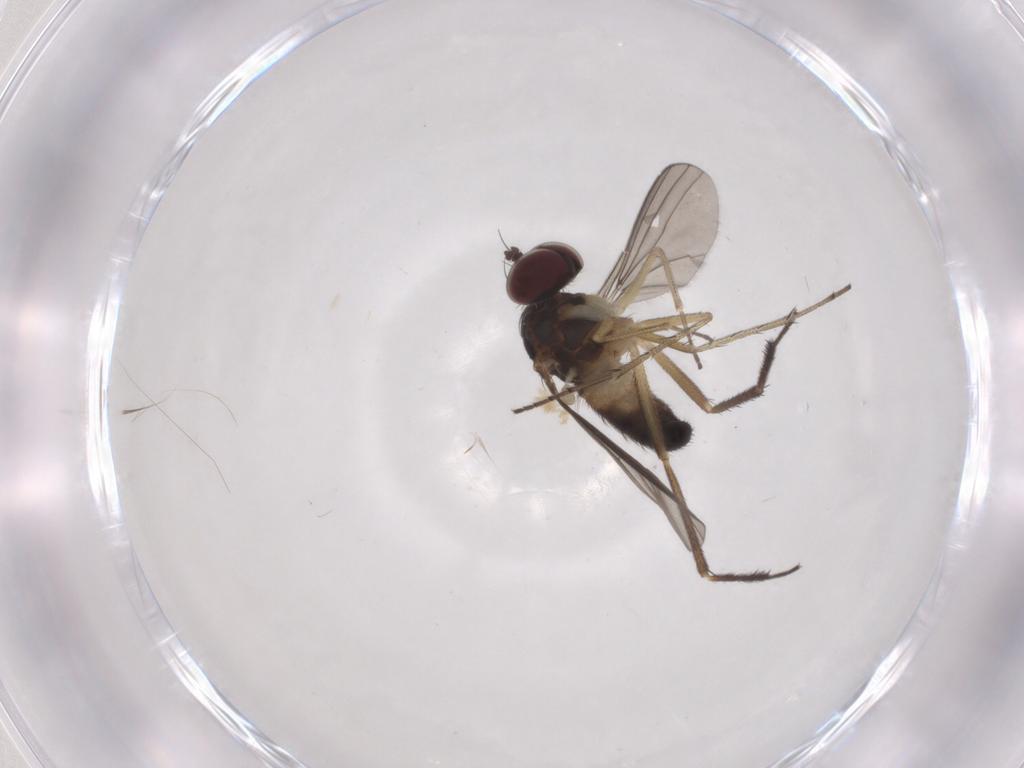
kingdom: Animalia
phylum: Arthropoda
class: Insecta
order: Diptera
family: Dolichopodidae
